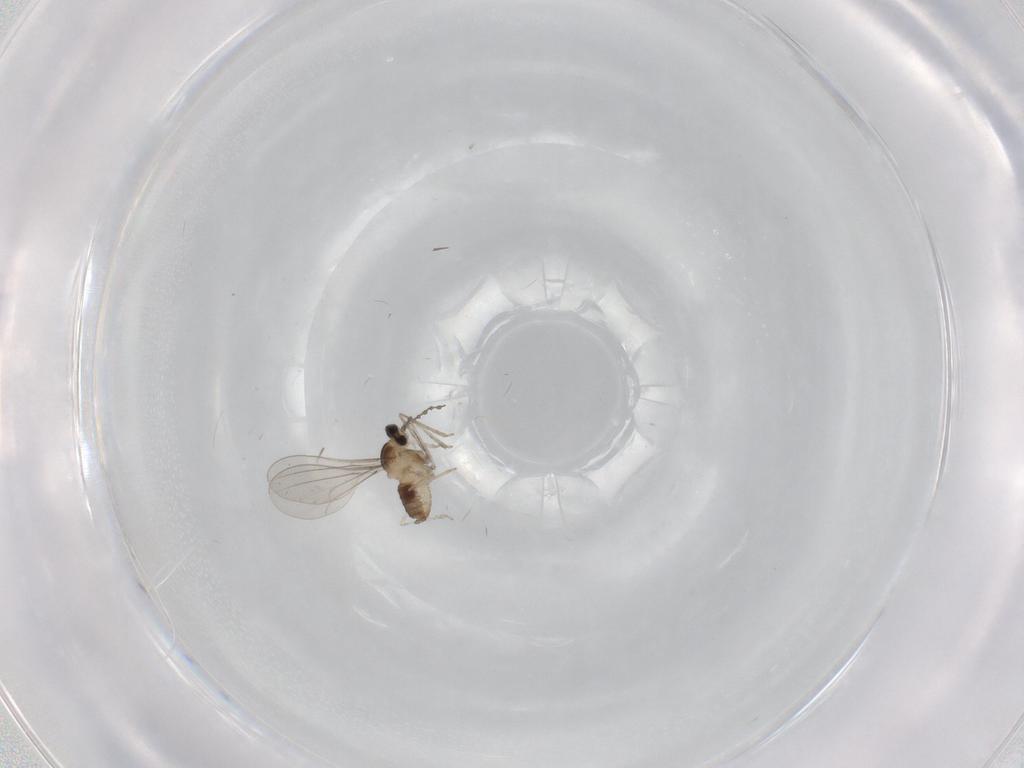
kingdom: Animalia
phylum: Arthropoda
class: Insecta
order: Diptera
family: Cecidomyiidae
